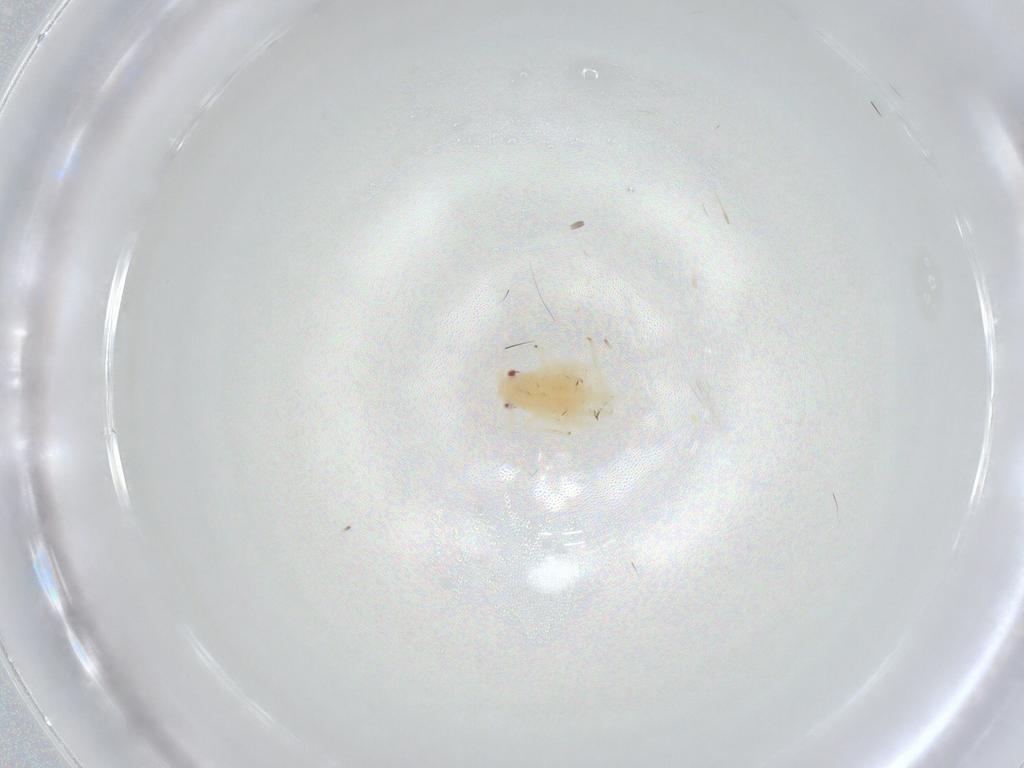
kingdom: Animalia
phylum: Arthropoda
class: Insecta
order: Hemiptera
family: Aphididae
